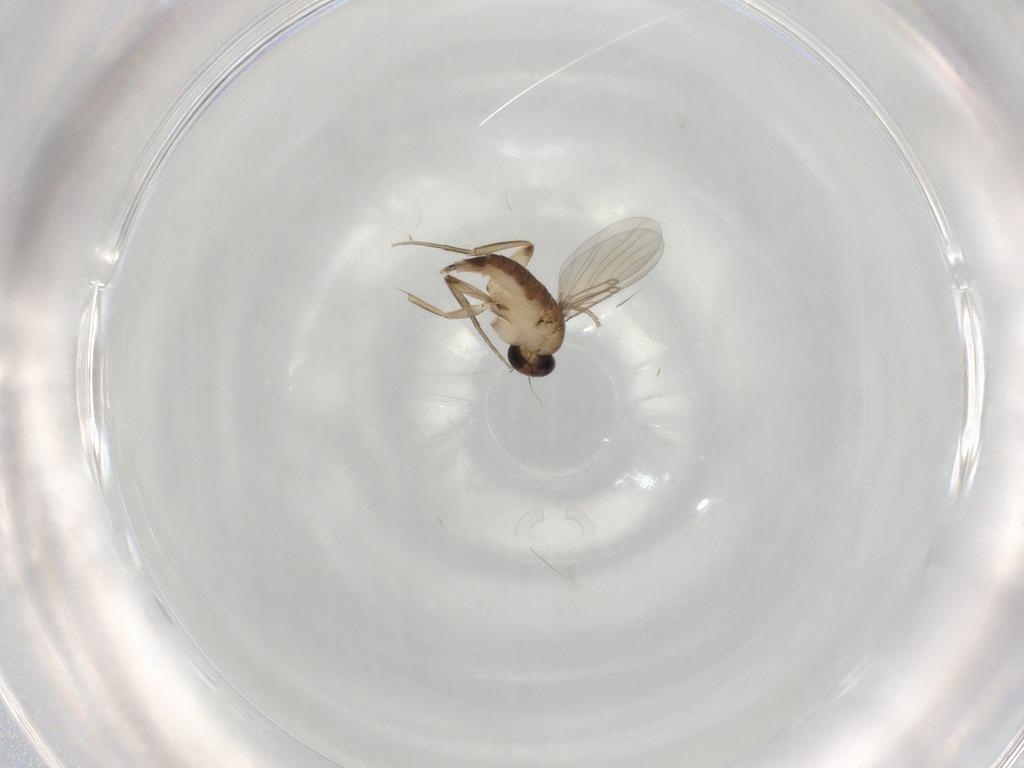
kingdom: Animalia
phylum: Arthropoda
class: Insecta
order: Diptera
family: Phoridae
